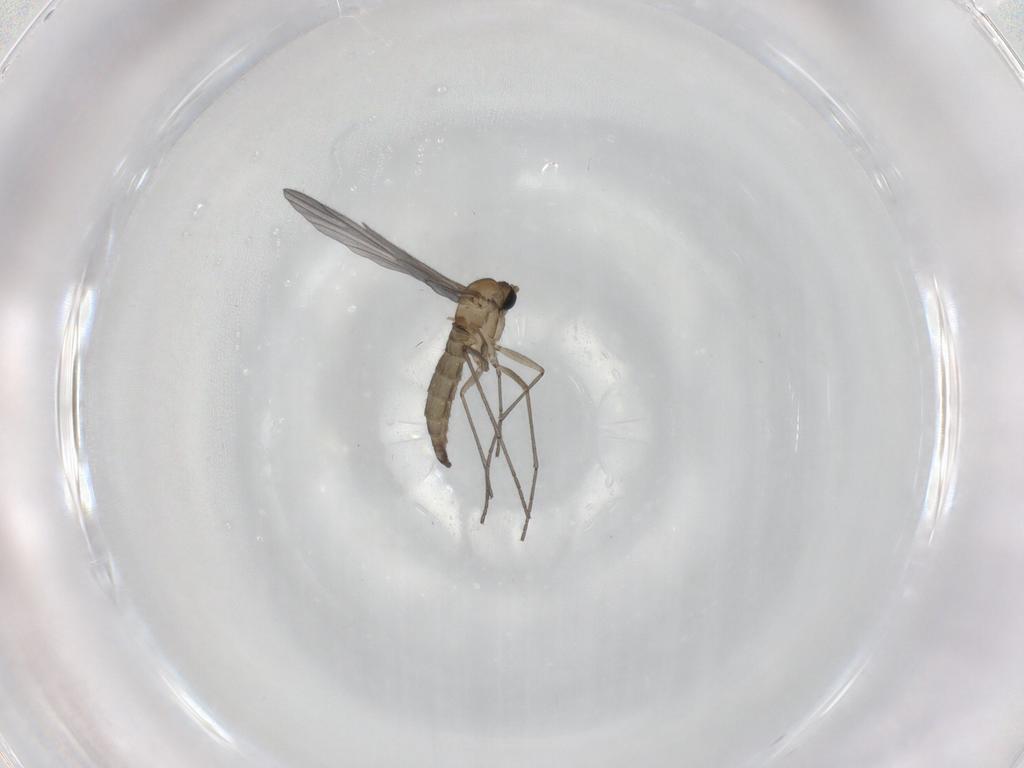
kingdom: Animalia
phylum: Arthropoda
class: Insecta
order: Diptera
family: Sciaridae
